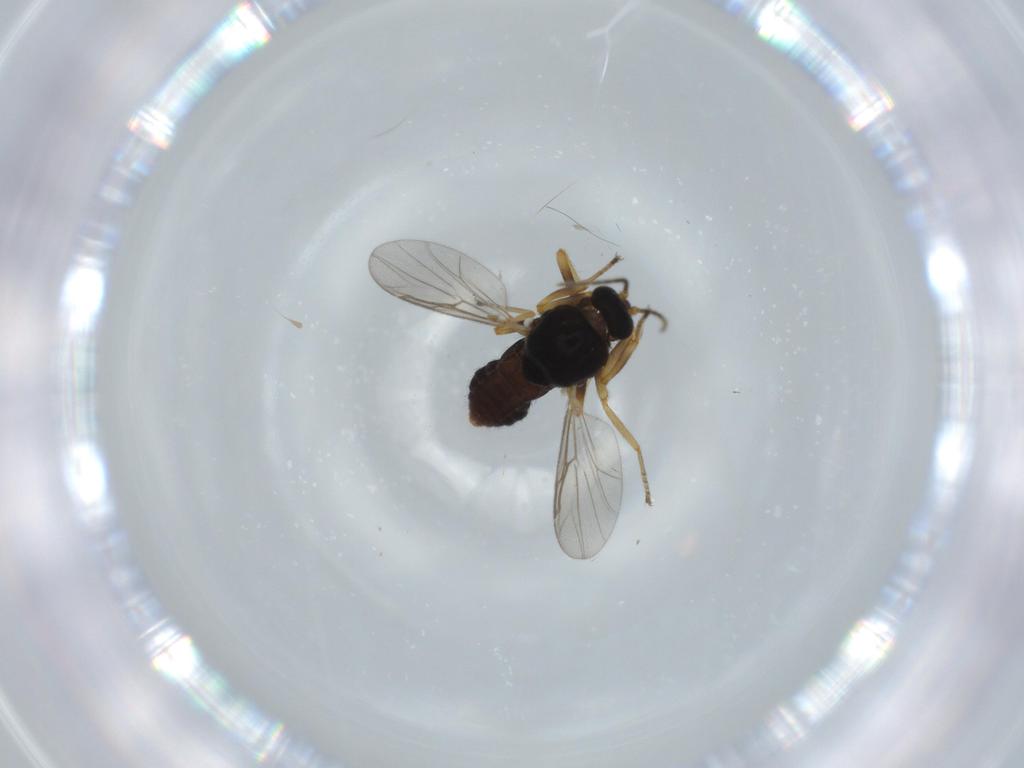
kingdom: Animalia
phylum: Arthropoda
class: Insecta
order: Diptera
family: Ceratopogonidae
